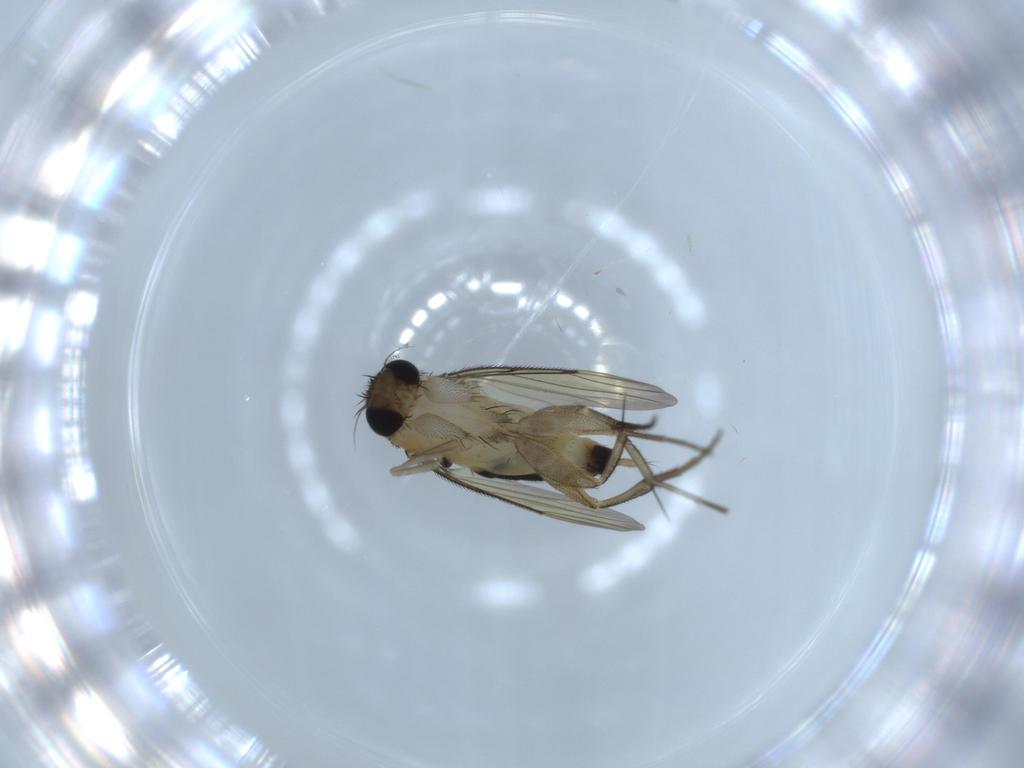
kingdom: Animalia
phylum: Arthropoda
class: Insecta
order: Diptera
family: Phoridae
